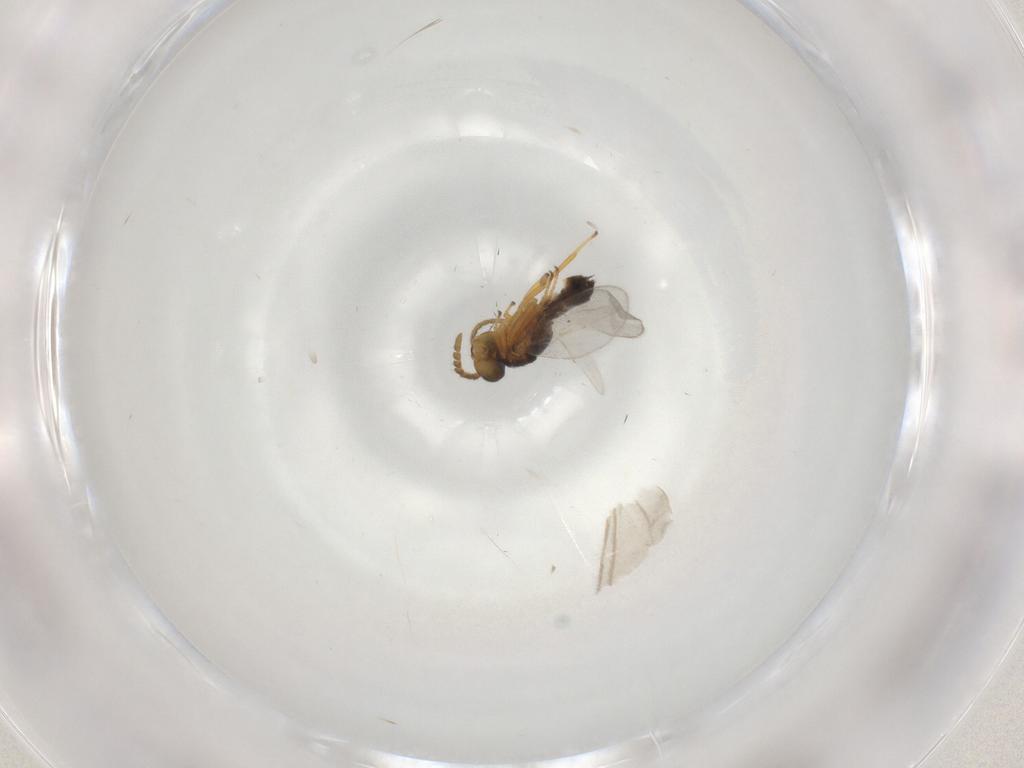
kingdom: Animalia
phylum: Arthropoda
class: Insecta
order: Hymenoptera
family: Encyrtidae
